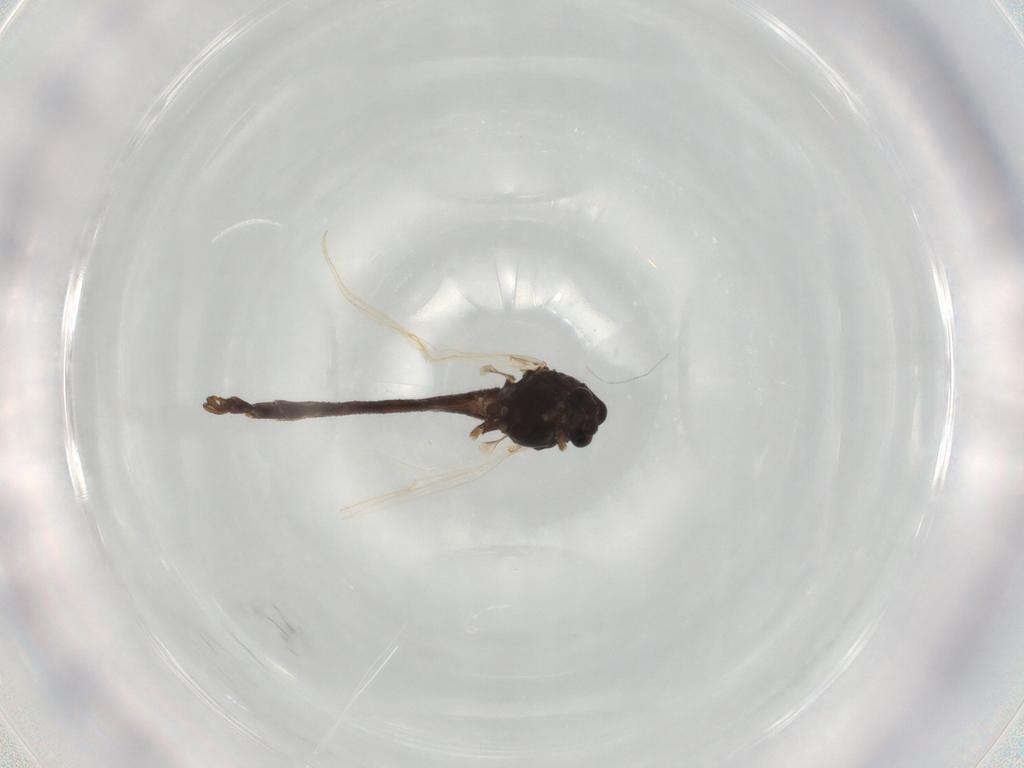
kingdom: Animalia
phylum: Arthropoda
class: Insecta
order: Diptera
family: Chironomidae
